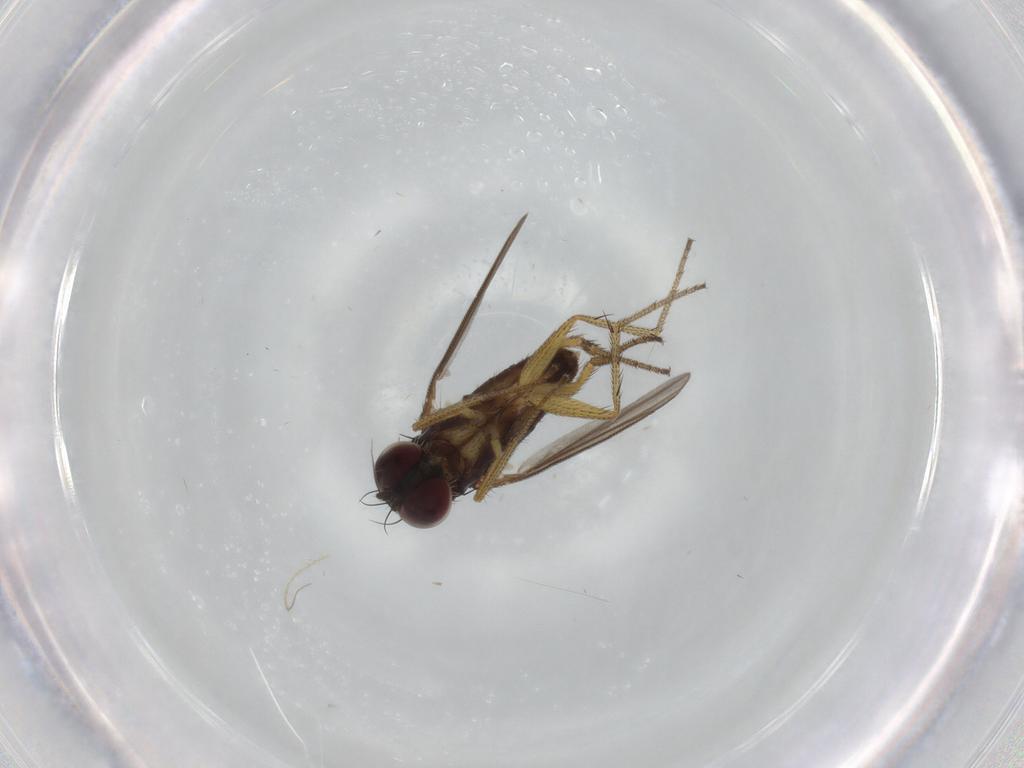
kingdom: Animalia
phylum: Arthropoda
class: Insecta
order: Diptera
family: Dolichopodidae
